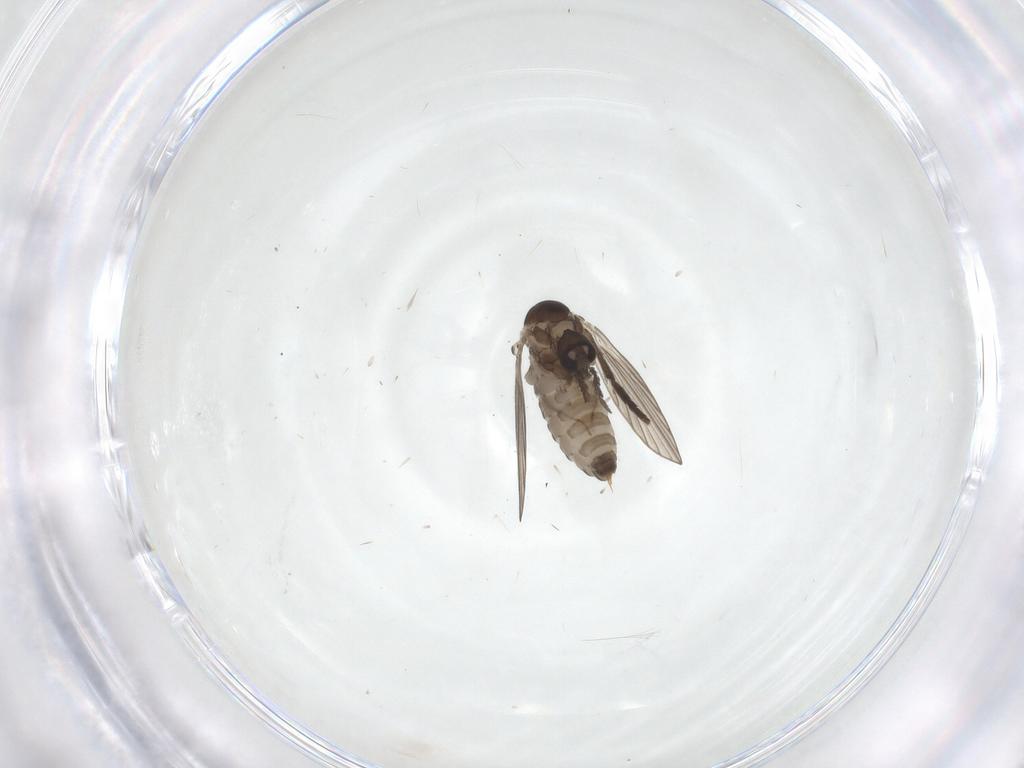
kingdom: Animalia
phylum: Arthropoda
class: Insecta
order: Diptera
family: Psychodidae
